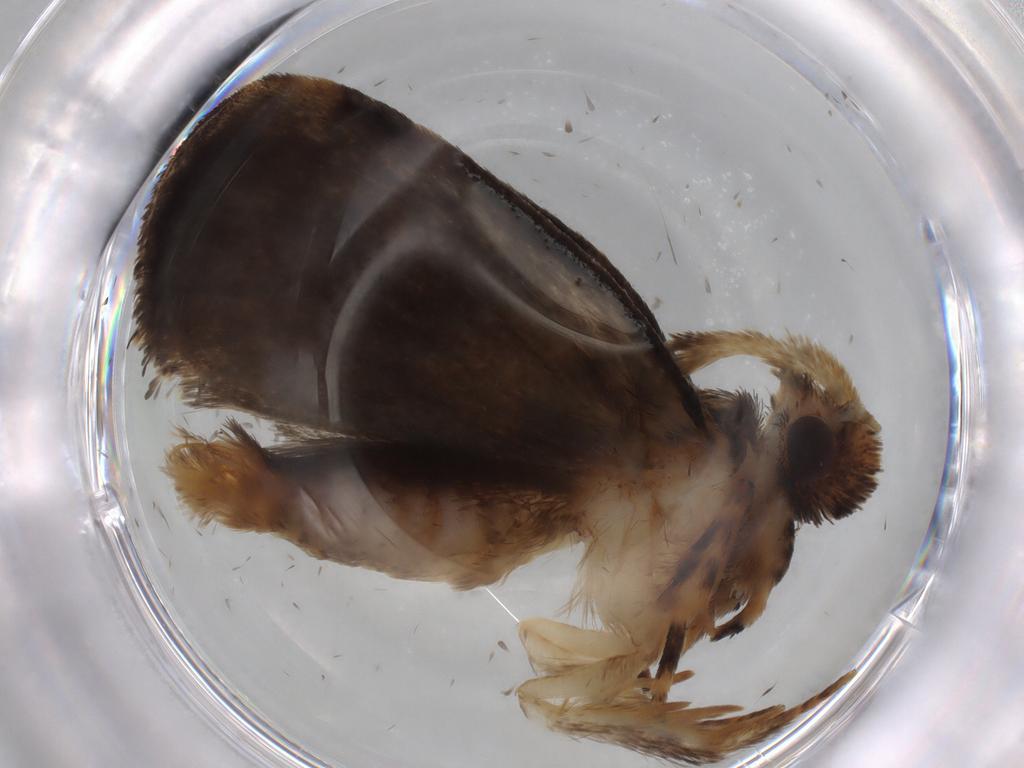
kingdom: Animalia
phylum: Arthropoda
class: Insecta
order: Lepidoptera
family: Tineidae
